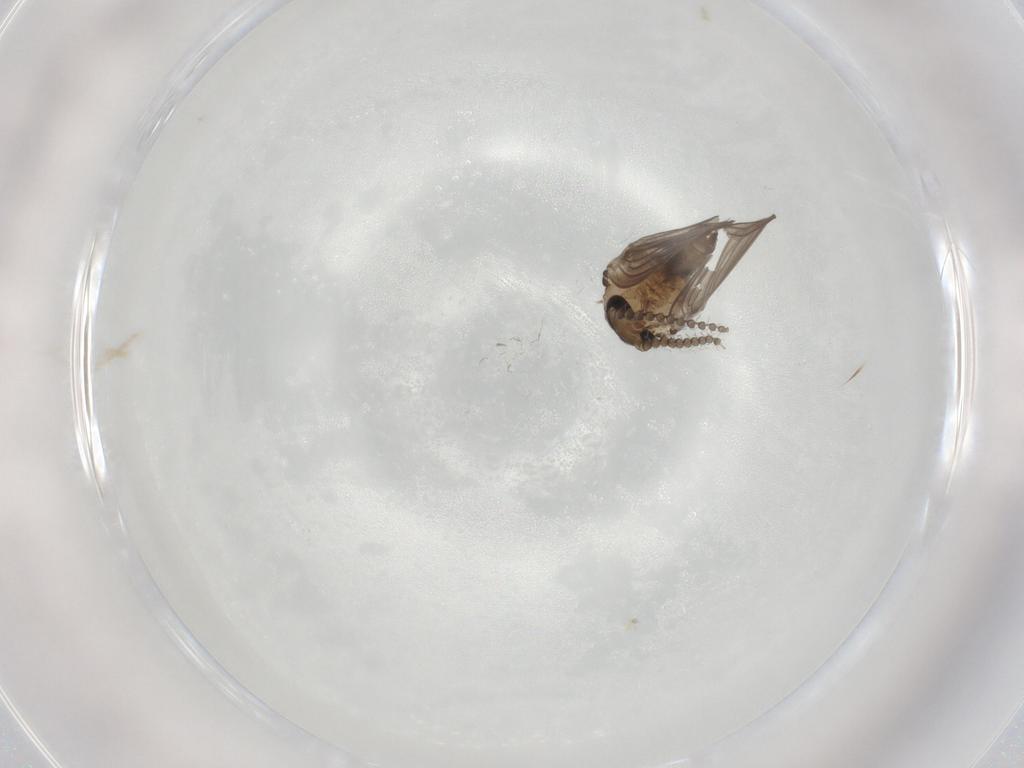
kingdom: Animalia
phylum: Arthropoda
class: Insecta
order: Diptera
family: Psychodidae
